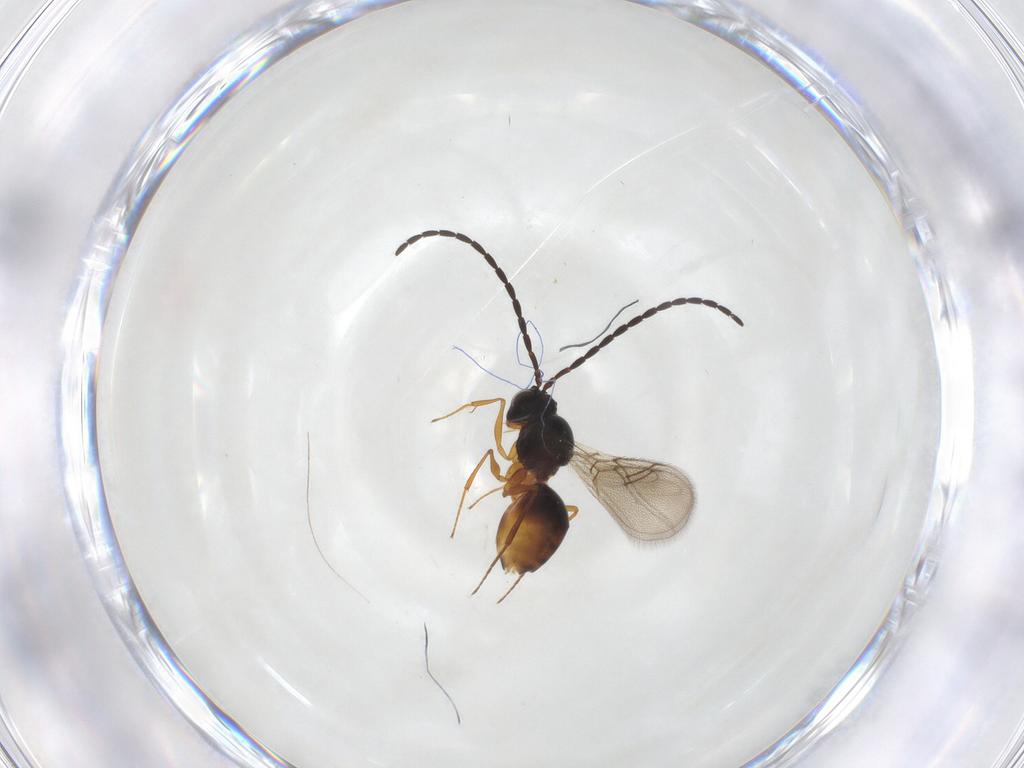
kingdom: Animalia
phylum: Arthropoda
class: Insecta
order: Hymenoptera
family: Figitidae
